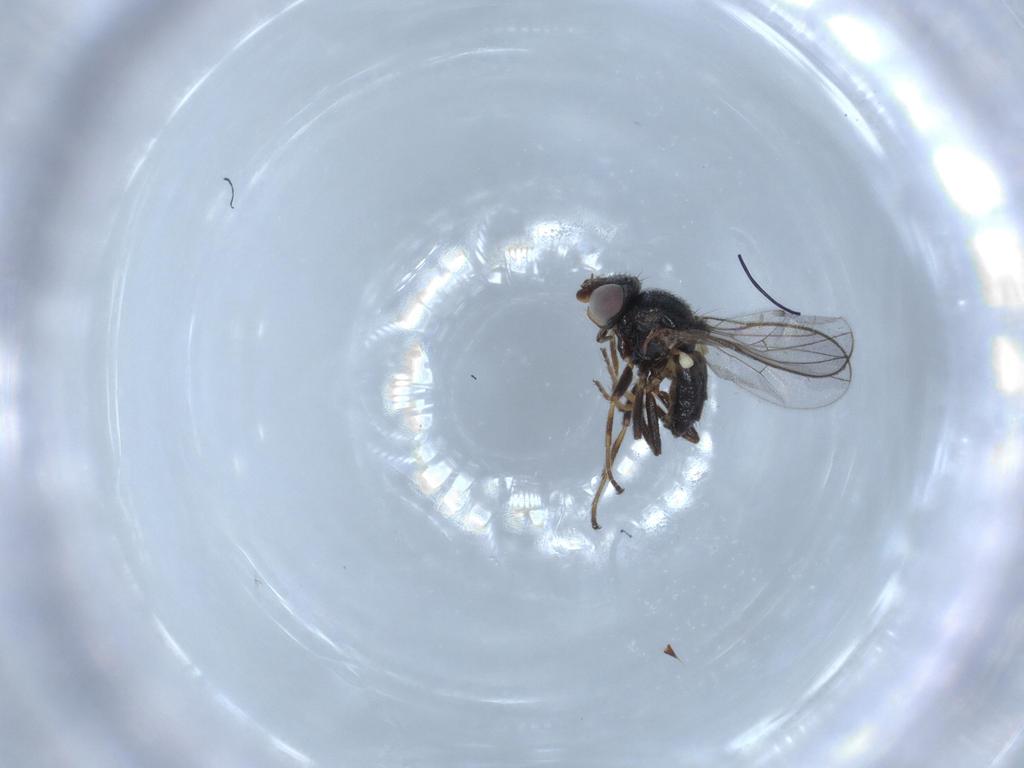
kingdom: Animalia
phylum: Arthropoda
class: Insecta
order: Diptera
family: Chloropidae
